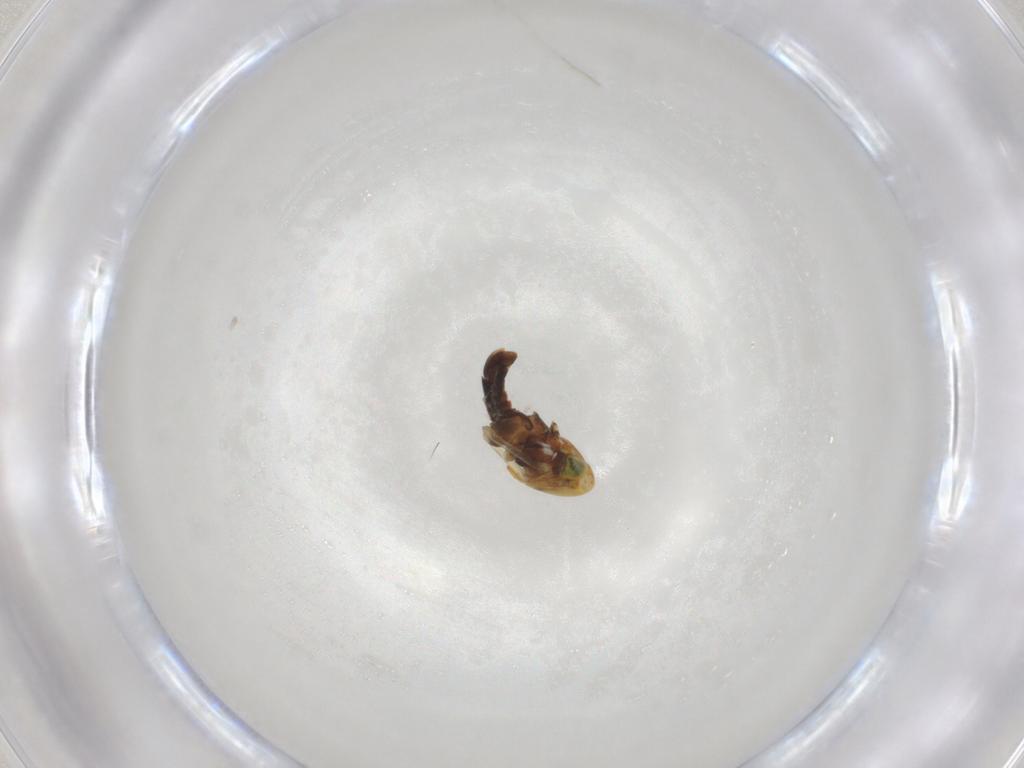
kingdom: Animalia
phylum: Arthropoda
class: Insecta
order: Hemiptera
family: Cicadellidae
